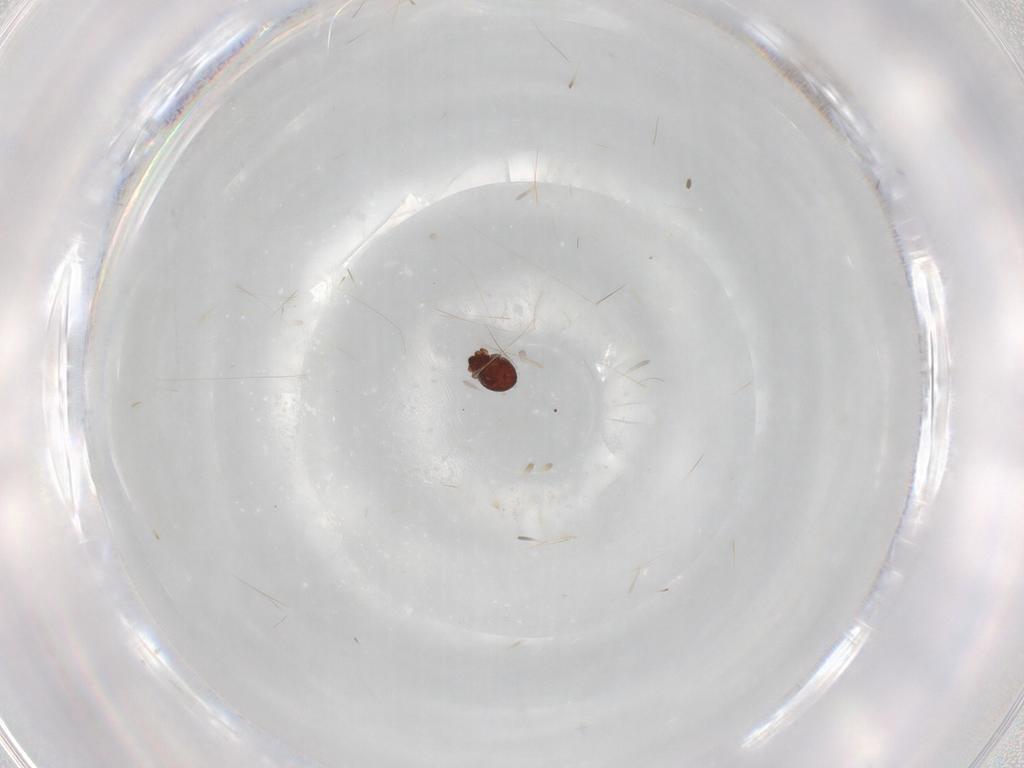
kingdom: Animalia
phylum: Arthropoda
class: Arachnida
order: Sarcoptiformes
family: Scheloribatidae
